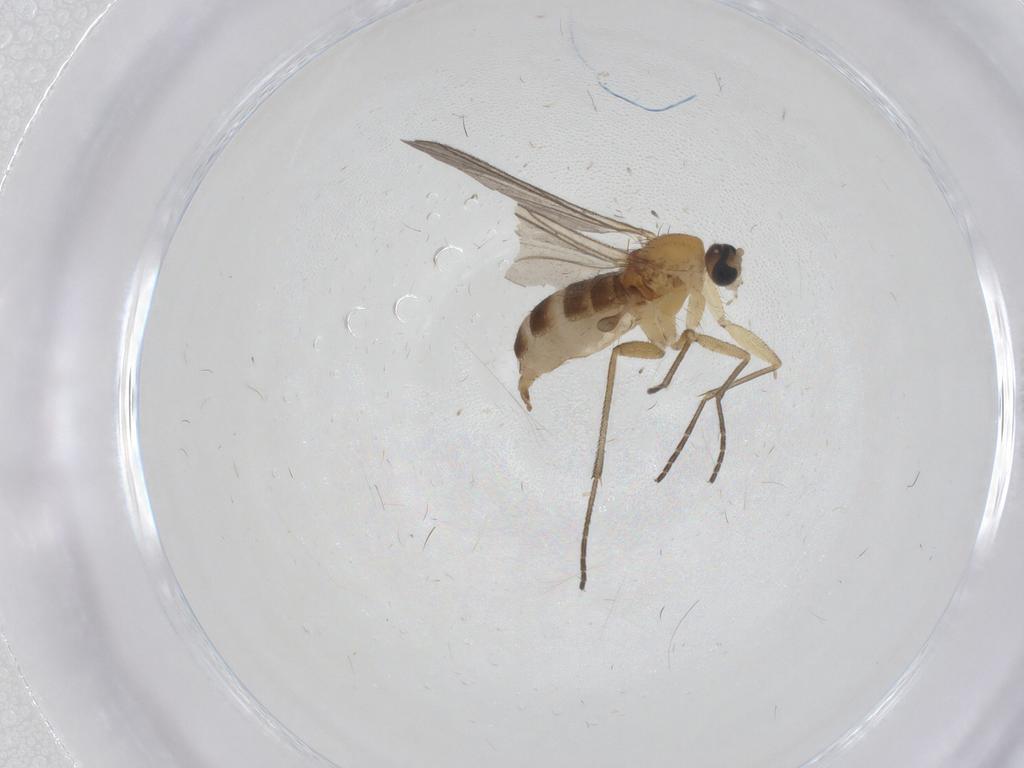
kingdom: Animalia
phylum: Arthropoda
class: Insecta
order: Diptera
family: Sciaridae
